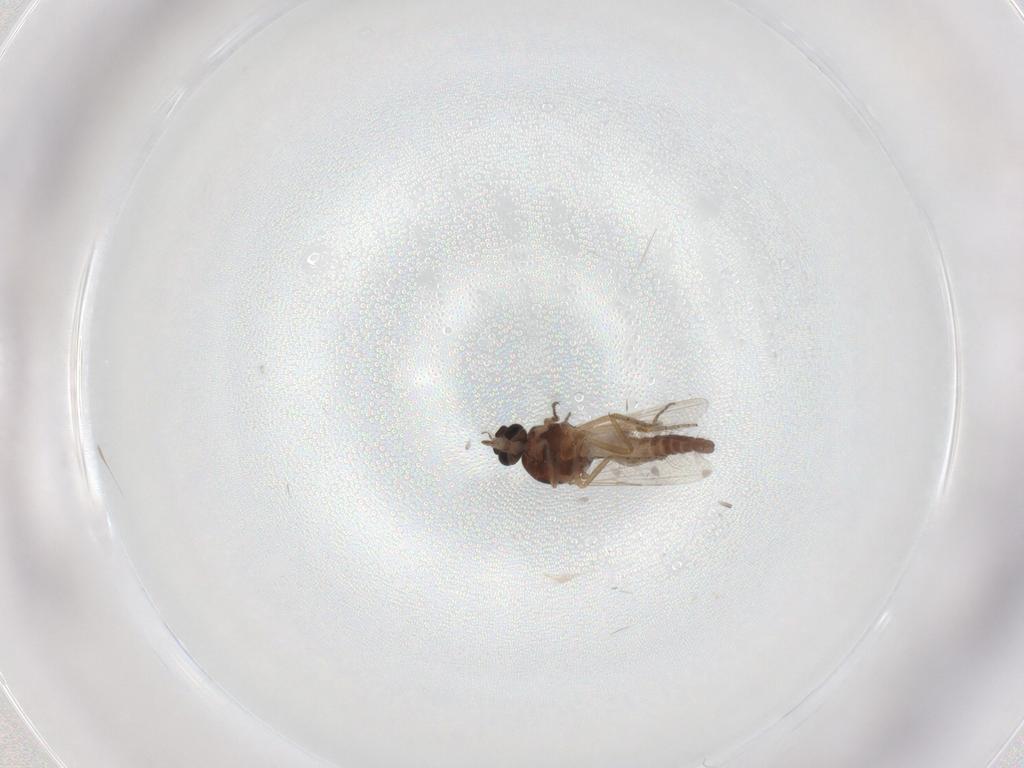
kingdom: Animalia
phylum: Arthropoda
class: Insecta
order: Diptera
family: Ceratopogonidae
